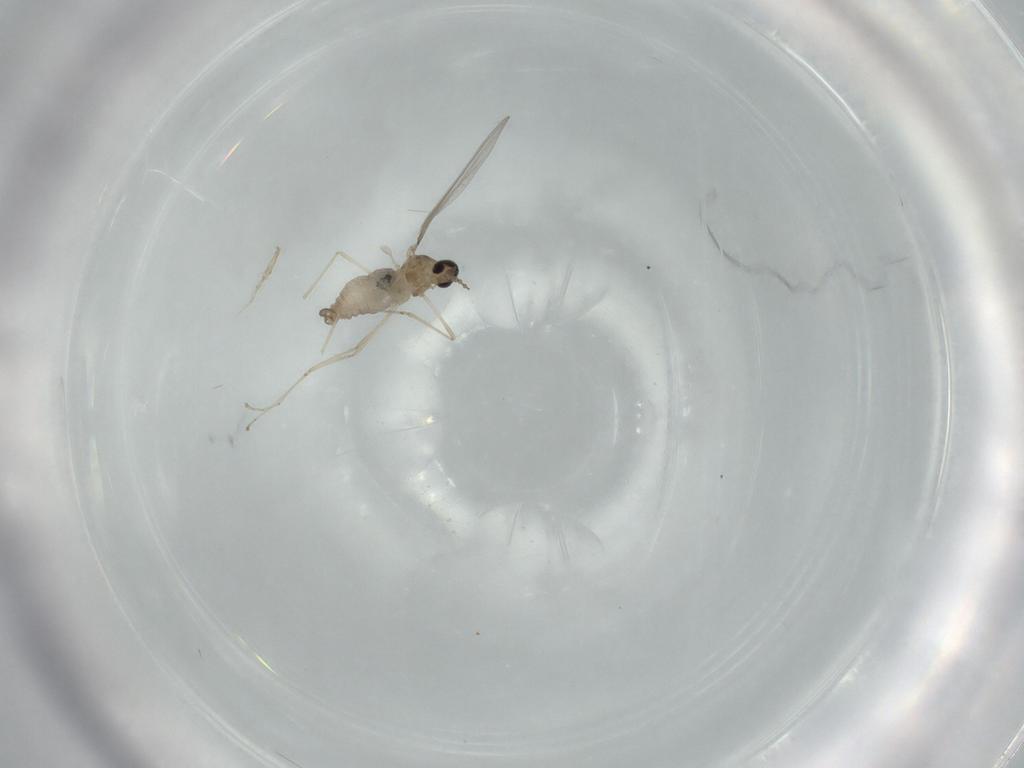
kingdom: Animalia
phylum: Arthropoda
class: Insecta
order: Diptera
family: Cecidomyiidae
